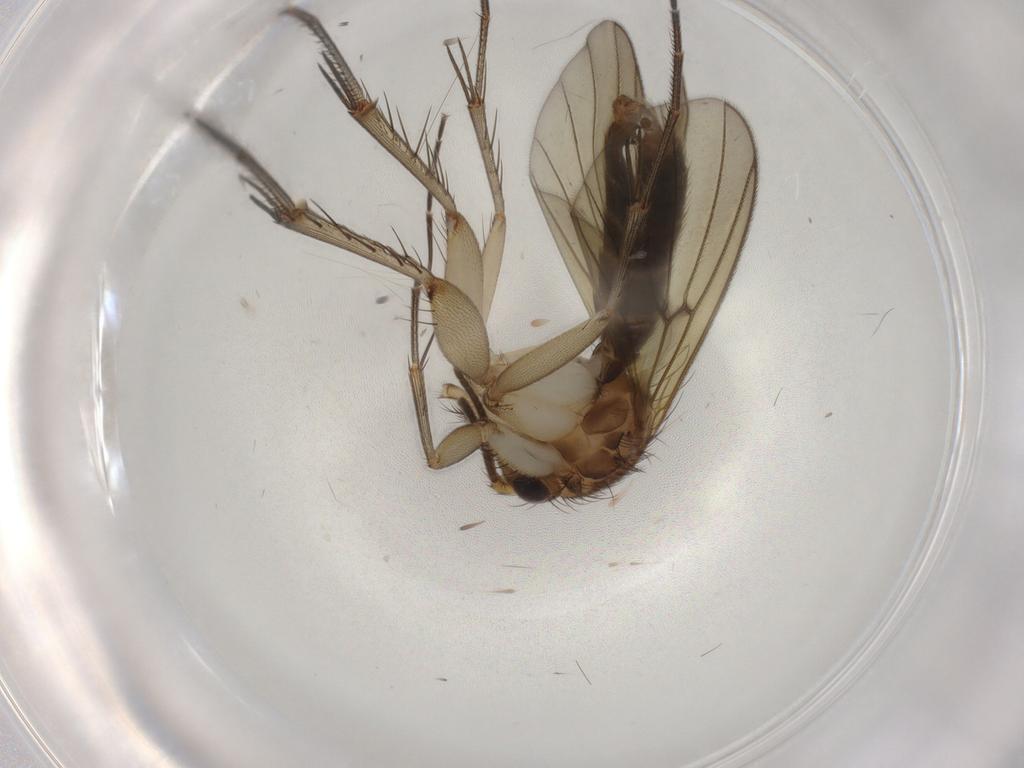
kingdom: Animalia
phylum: Arthropoda
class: Insecta
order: Diptera
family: Mycetophilidae
